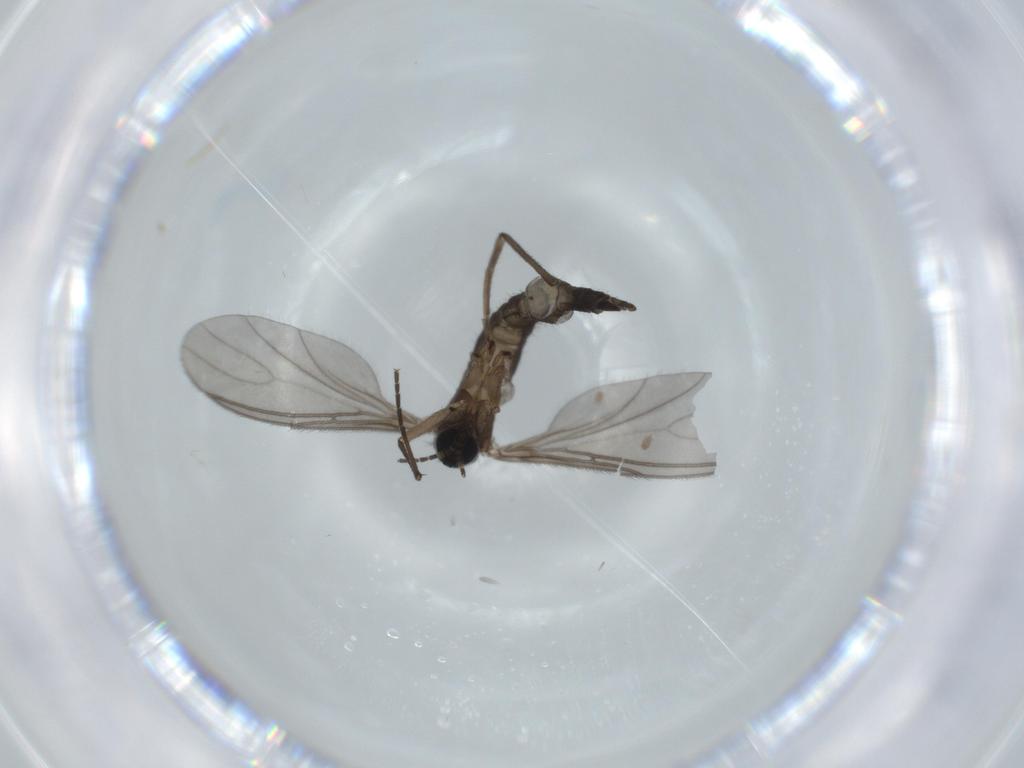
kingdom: Animalia
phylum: Arthropoda
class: Insecta
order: Diptera
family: Sciaridae
